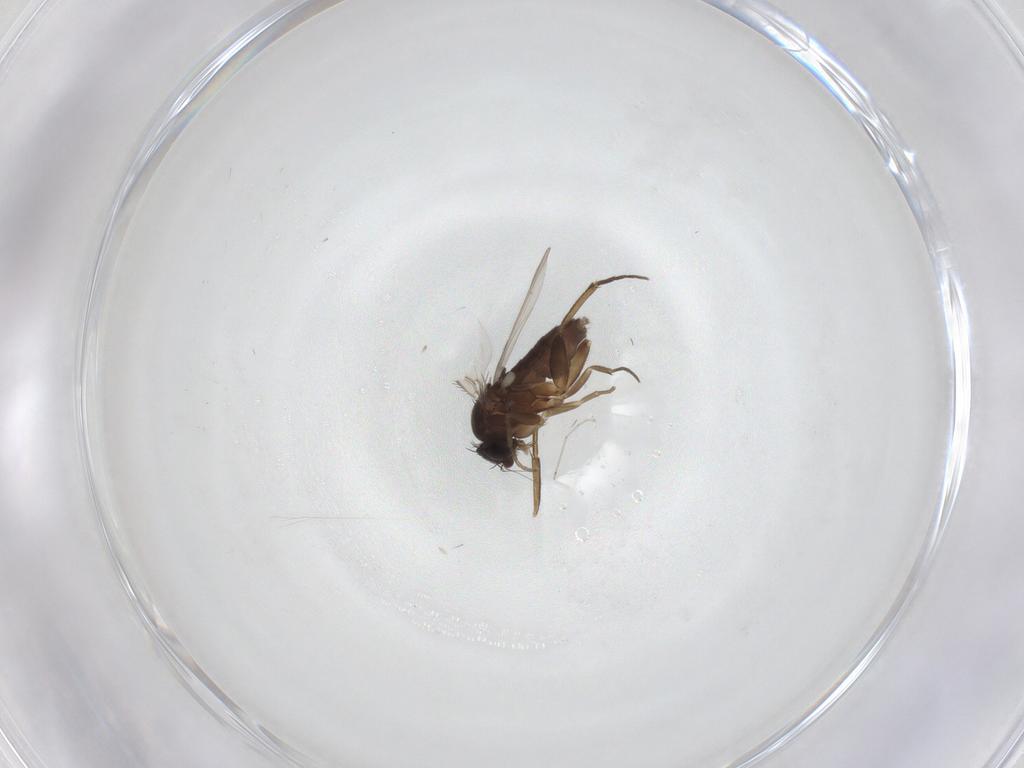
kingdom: Animalia
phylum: Arthropoda
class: Insecta
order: Diptera
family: Phoridae
